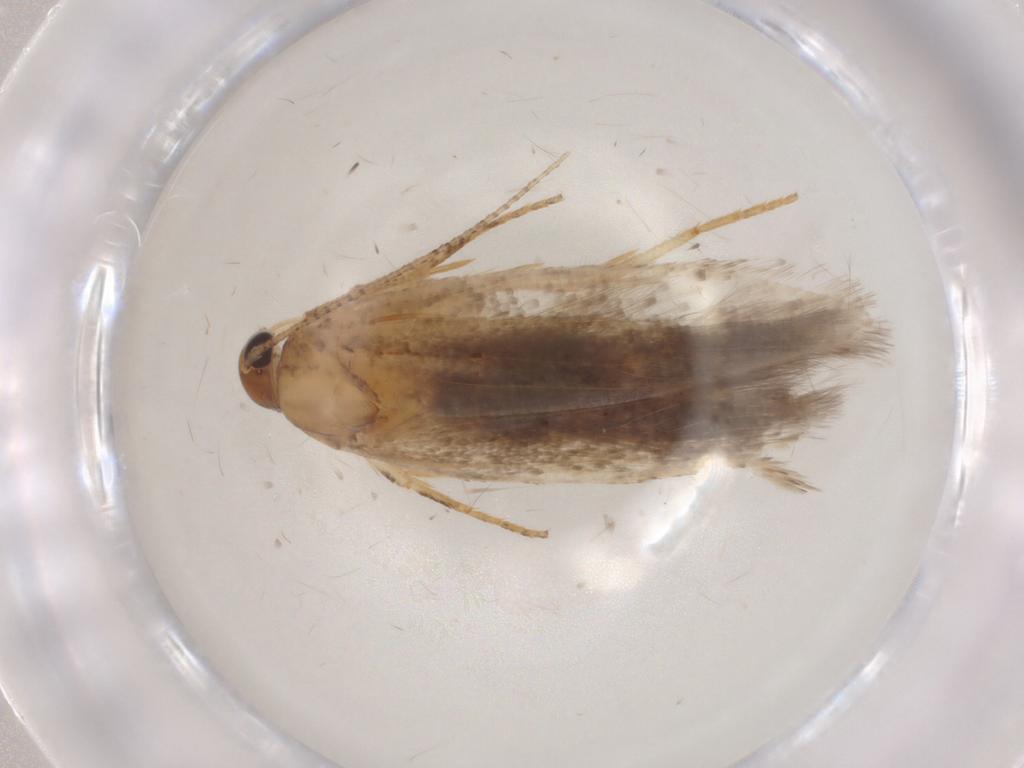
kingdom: Animalia
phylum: Arthropoda
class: Insecta
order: Lepidoptera
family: Gelechiidae
